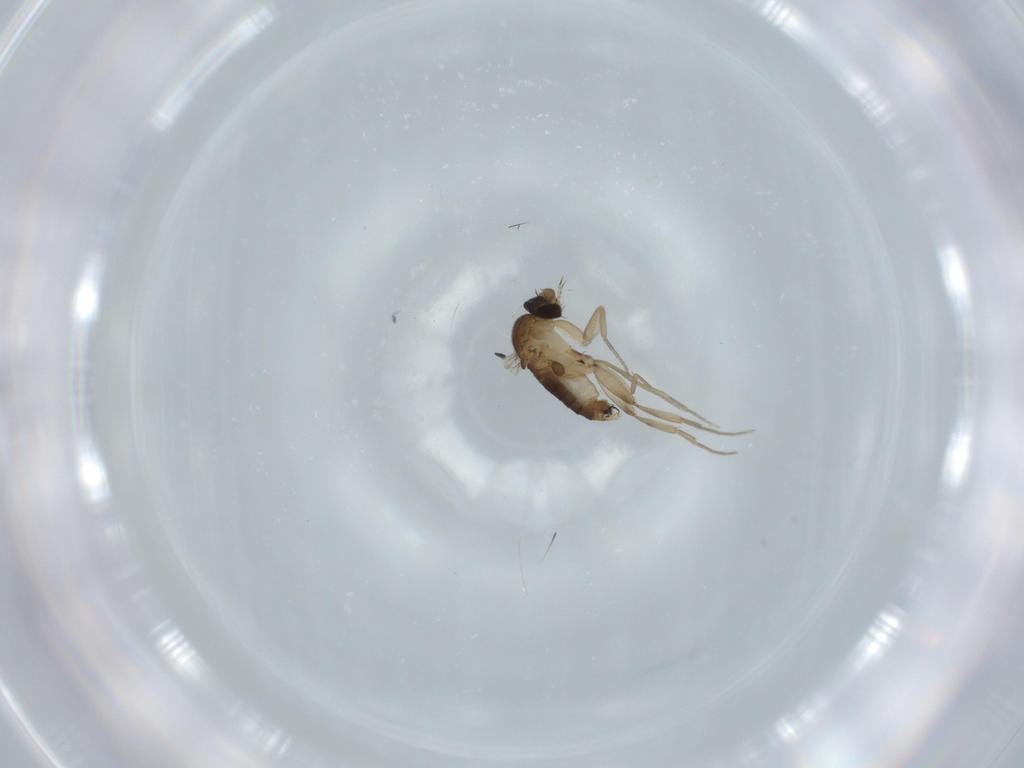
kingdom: Animalia
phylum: Arthropoda
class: Insecta
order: Diptera
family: Phoridae
